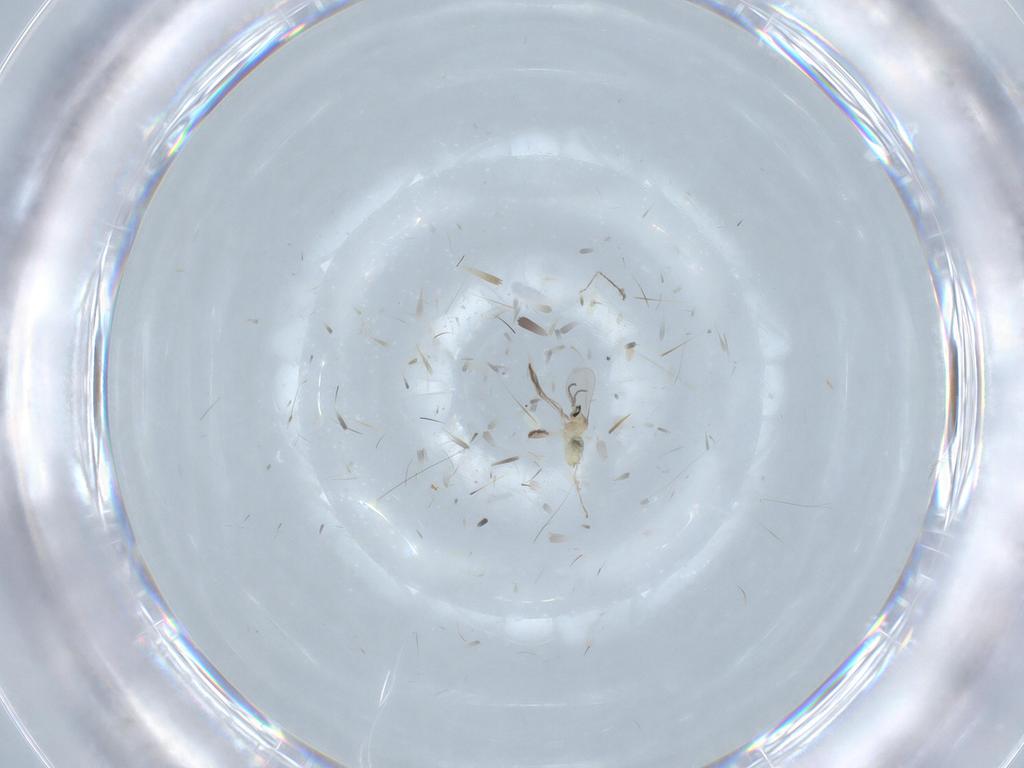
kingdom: Animalia
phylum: Arthropoda
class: Insecta
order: Diptera
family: Cecidomyiidae
